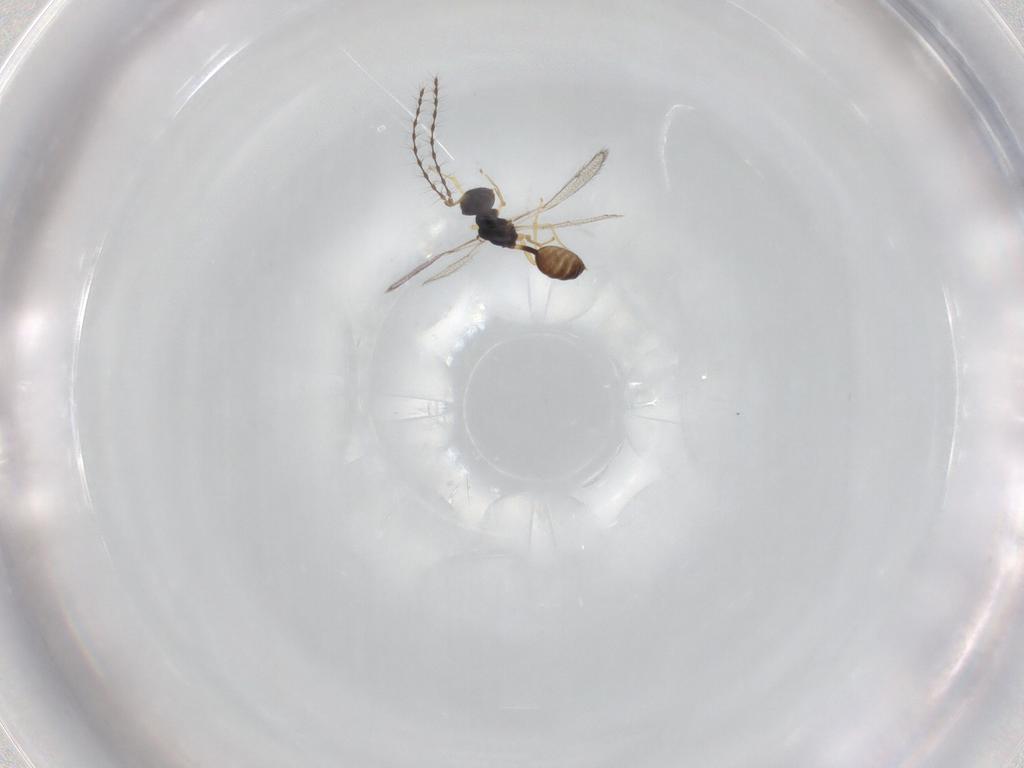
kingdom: Animalia
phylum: Arthropoda
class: Insecta
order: Hymenoptera
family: Diparidae
